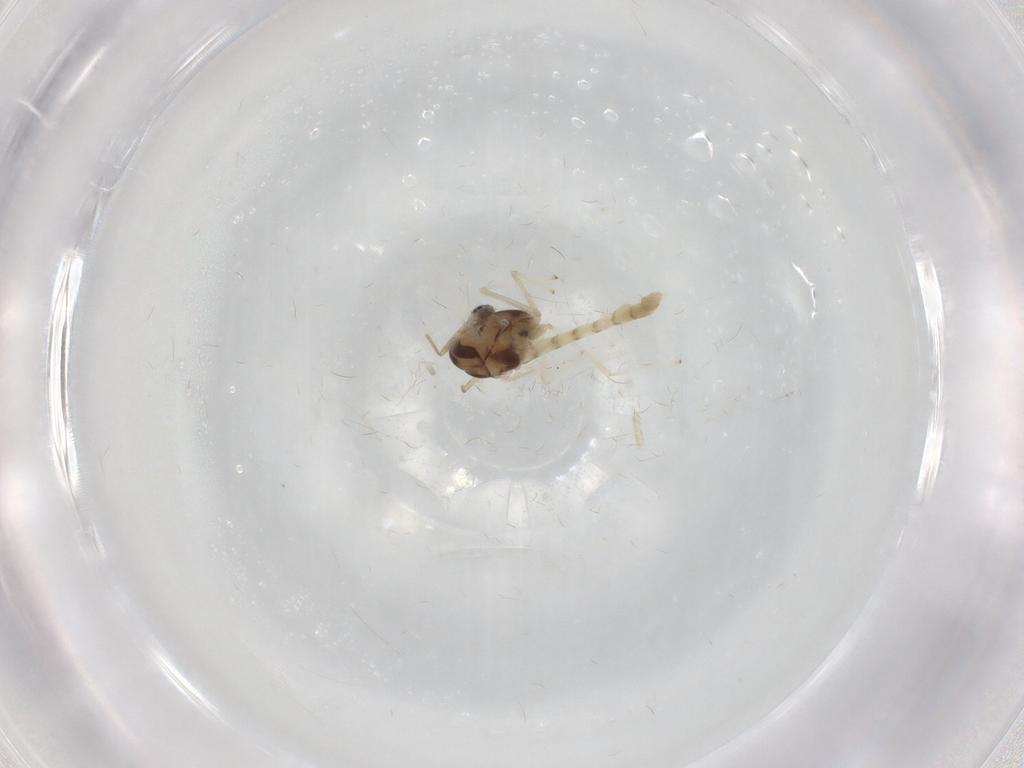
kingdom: Animalia
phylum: Arthropoda
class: Insecta
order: Diptera
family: Chironomidae
